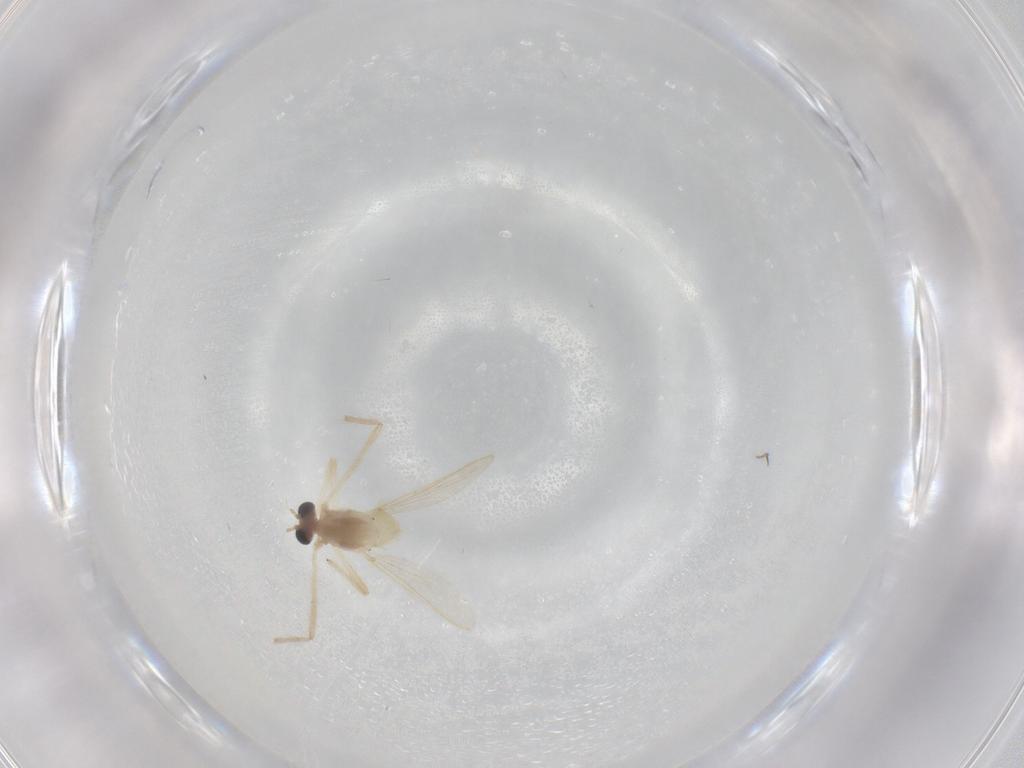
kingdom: Animalia
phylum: Arthropoda
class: Insecta
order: Diptera
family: Chironomidae
